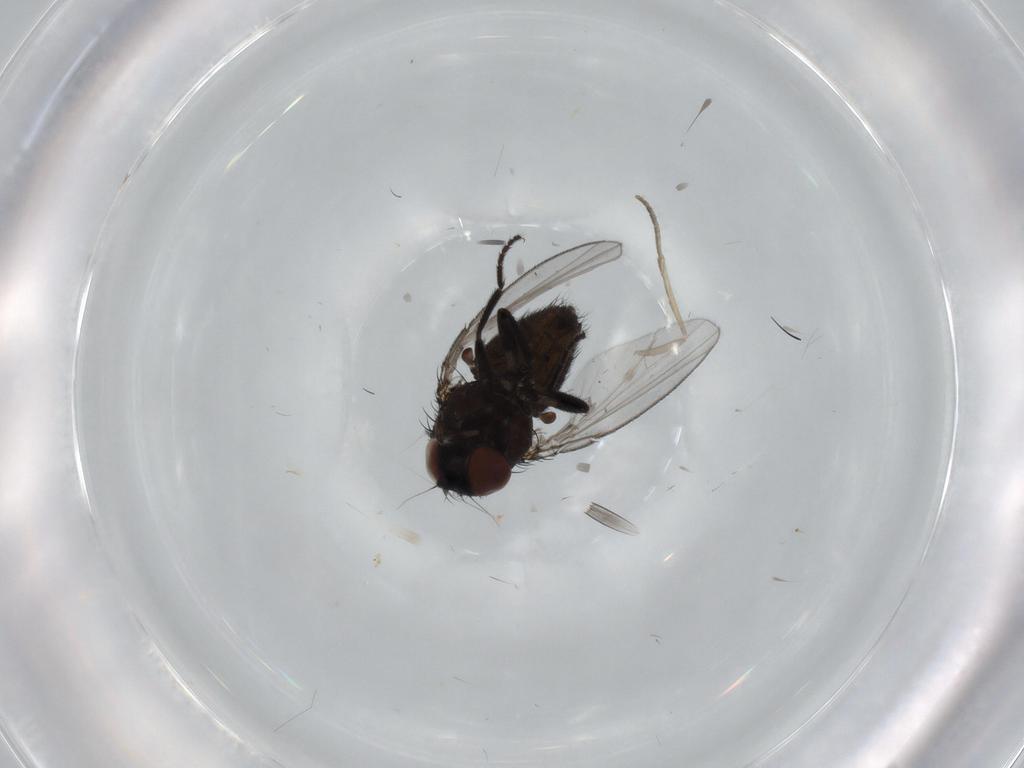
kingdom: Animalia
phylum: Arthropoda
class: Insecta
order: Diptera
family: Milichiidae
